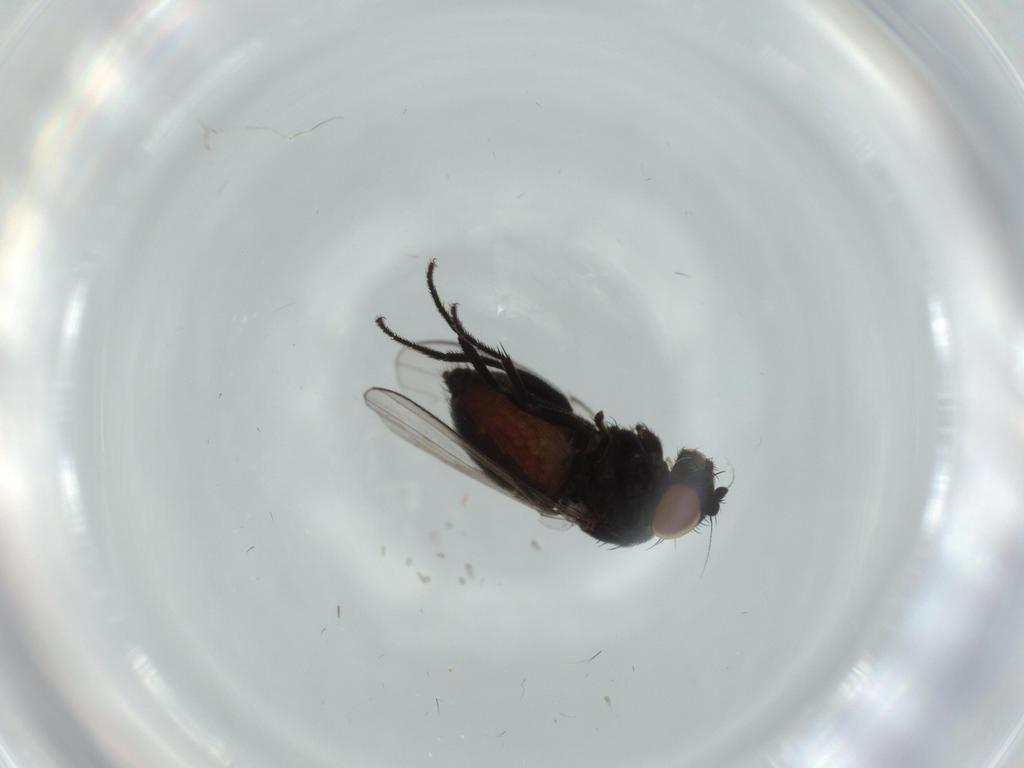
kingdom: Animalia
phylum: Arthropoda
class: Insecta
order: Diptera
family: Milichiidae
